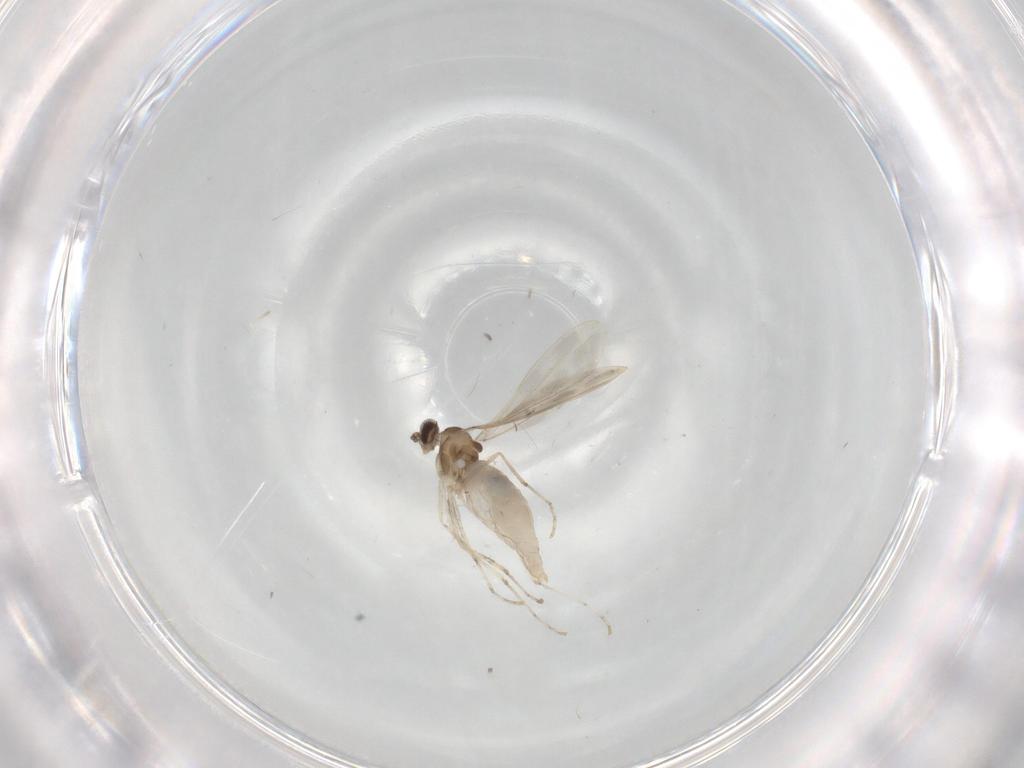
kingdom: Animalia
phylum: Arthropoda
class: Insecta
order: Diptera
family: Cecidomyiidae
